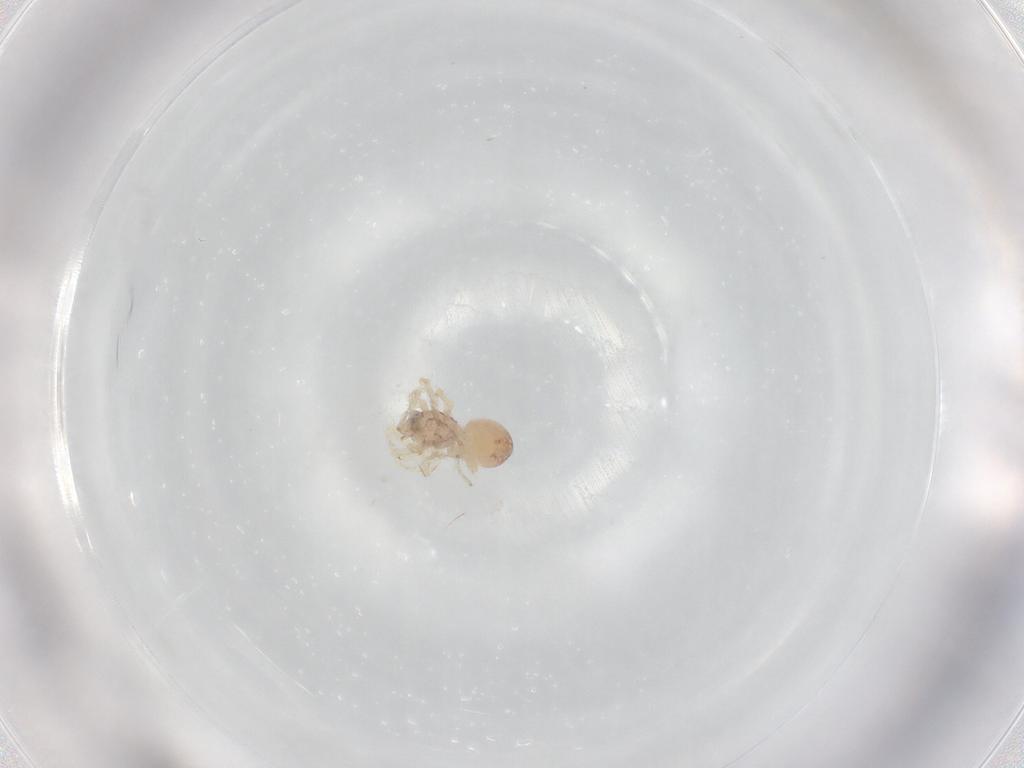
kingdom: Animalia
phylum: Arthropoda
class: Arachnida
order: Araneae
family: Idiopidae
